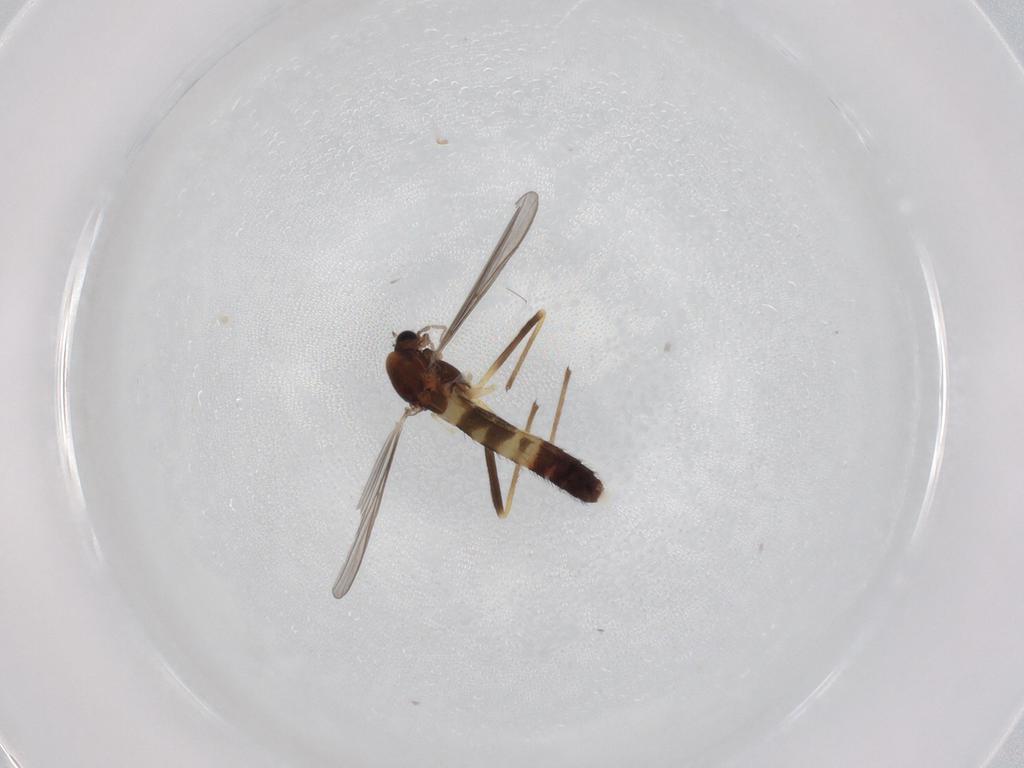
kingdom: Animalia
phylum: Arthropoda
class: Insecta
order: Diptera
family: Chironomidae
